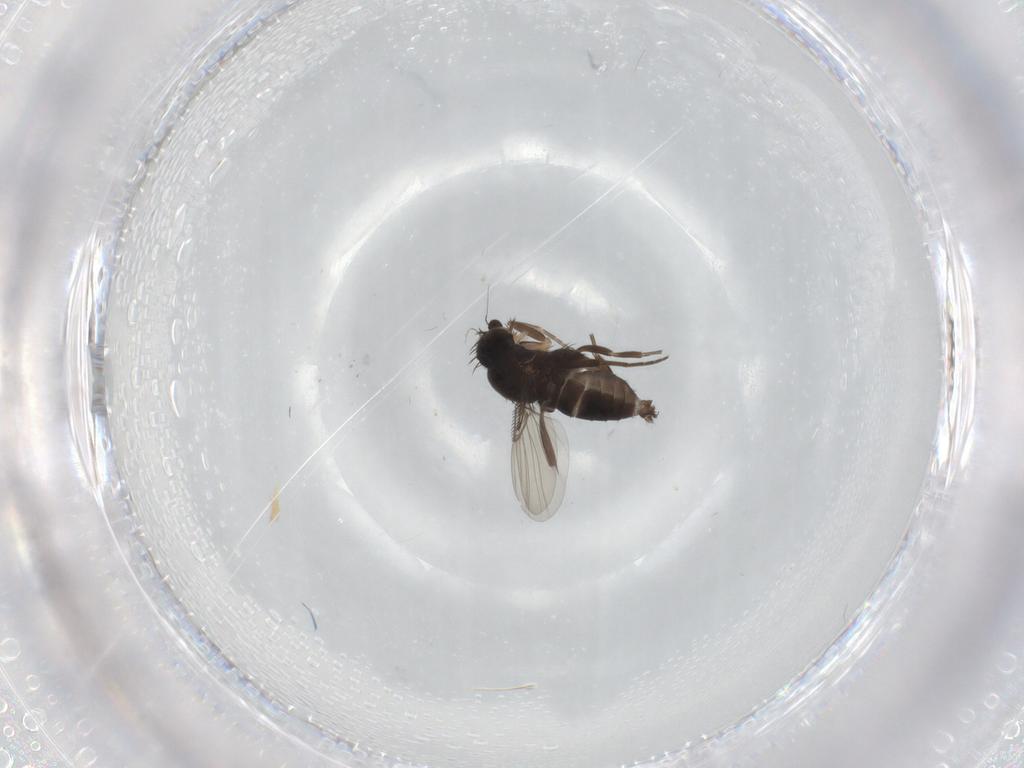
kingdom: Animalia
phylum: Arthropoda
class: Insecta
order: Diptera
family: Phoridae
